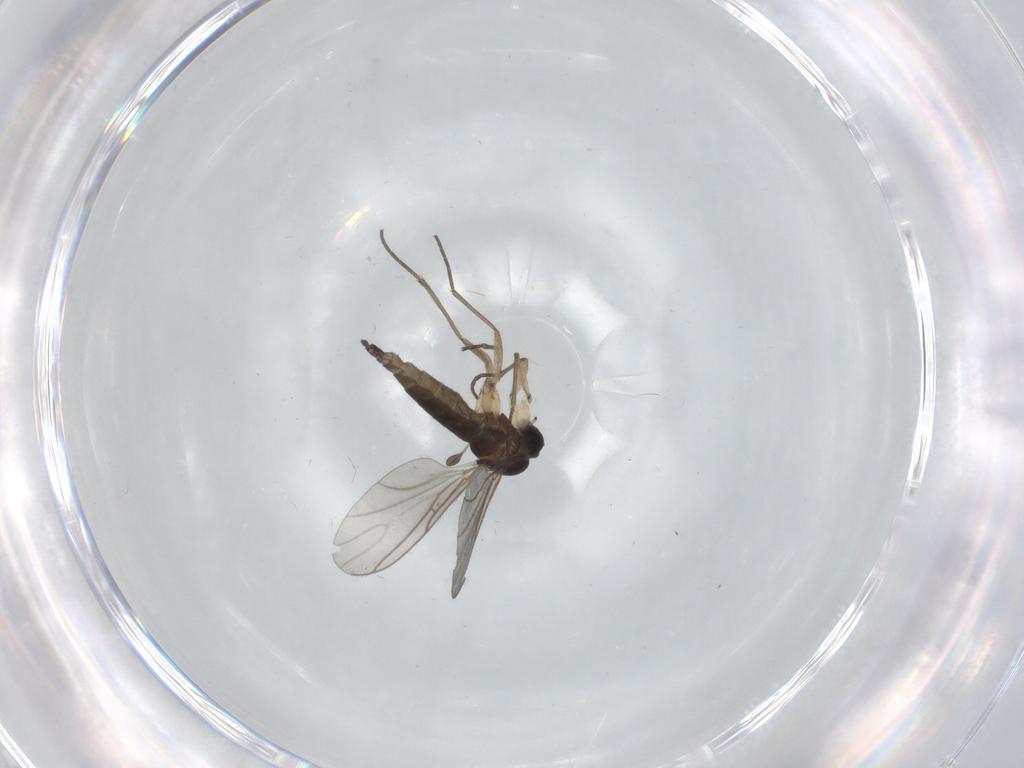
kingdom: Animalia
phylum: Arthropoda
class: Insecta
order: Diptera
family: Sciaridae
